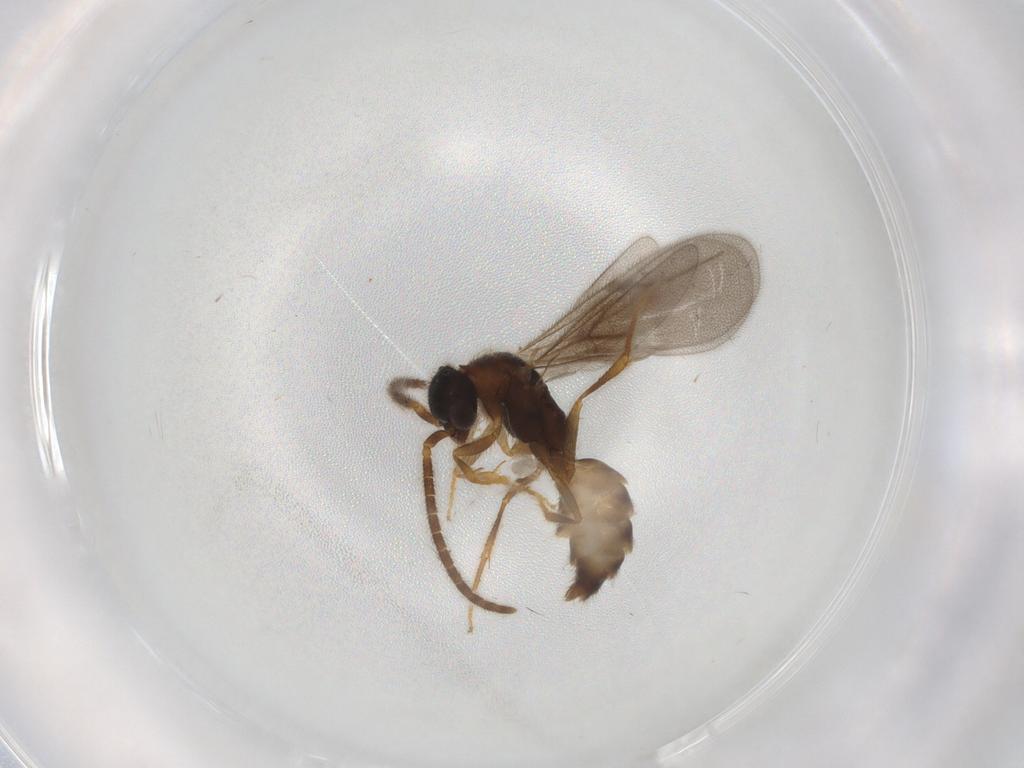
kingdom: Animalia
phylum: Arthropoda
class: Insecta
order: Hymenoptera
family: Bethylidae
